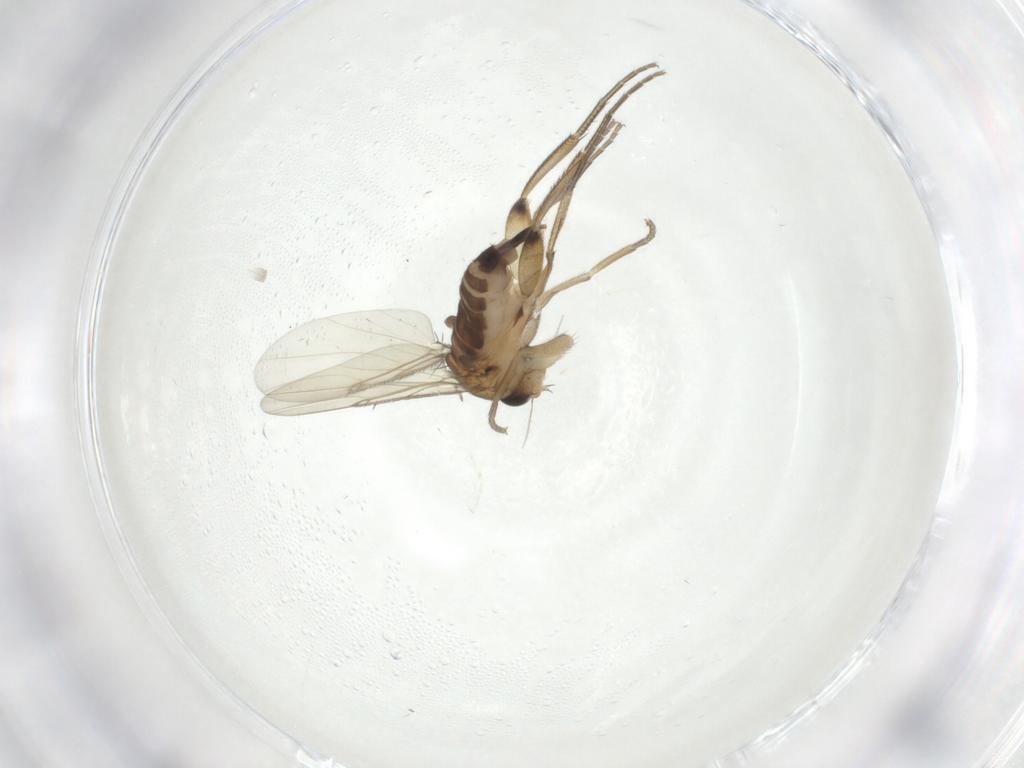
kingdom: Animalia
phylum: Arthropoda
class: Insecta
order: Diptera
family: Phoridae
